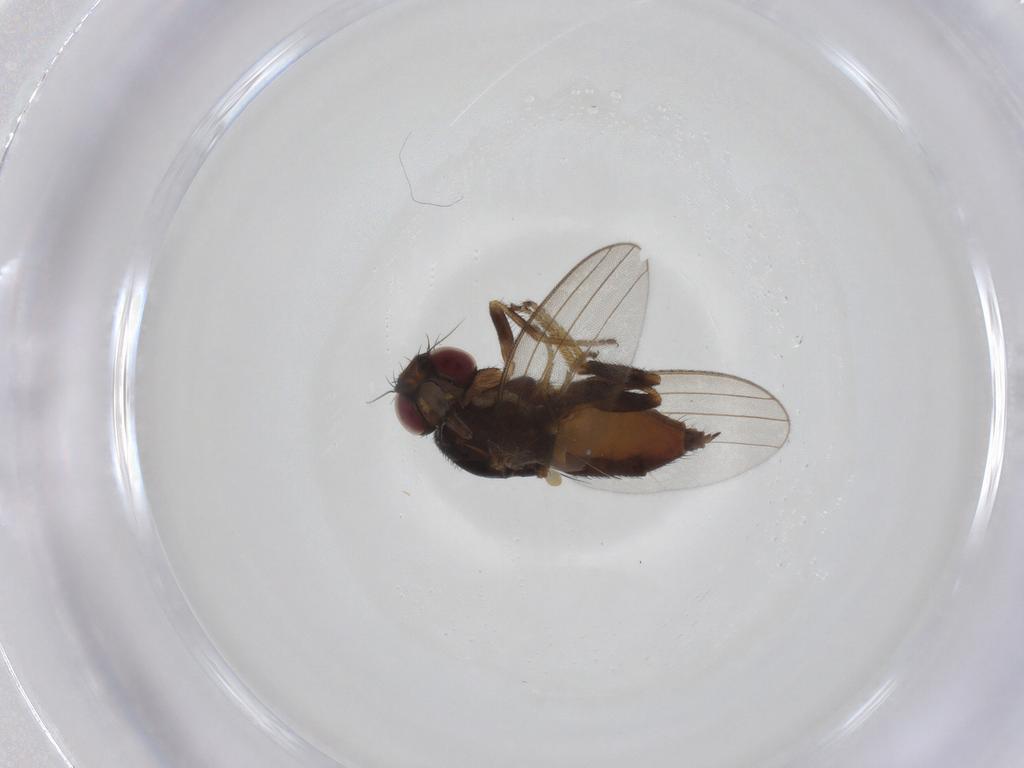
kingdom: Animalia
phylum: Arthropoda
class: Insecta
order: Diptera
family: Milichiidae
